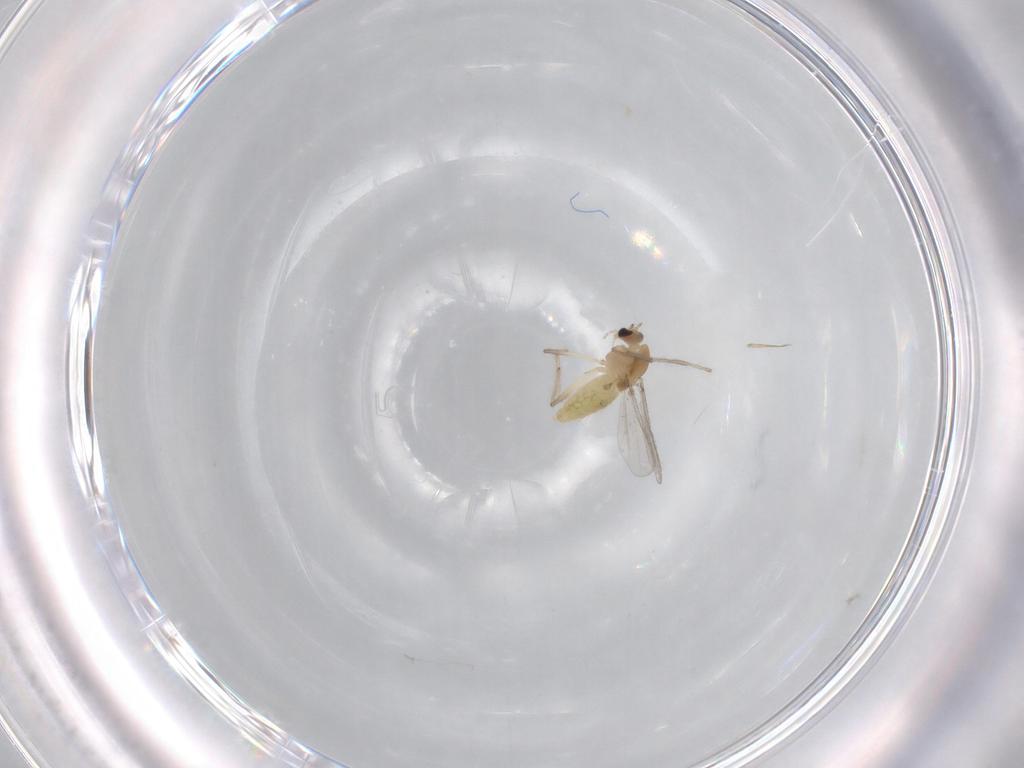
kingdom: Animalia
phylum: Arthropoda
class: Insecta
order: Diptera
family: Chironomidae
